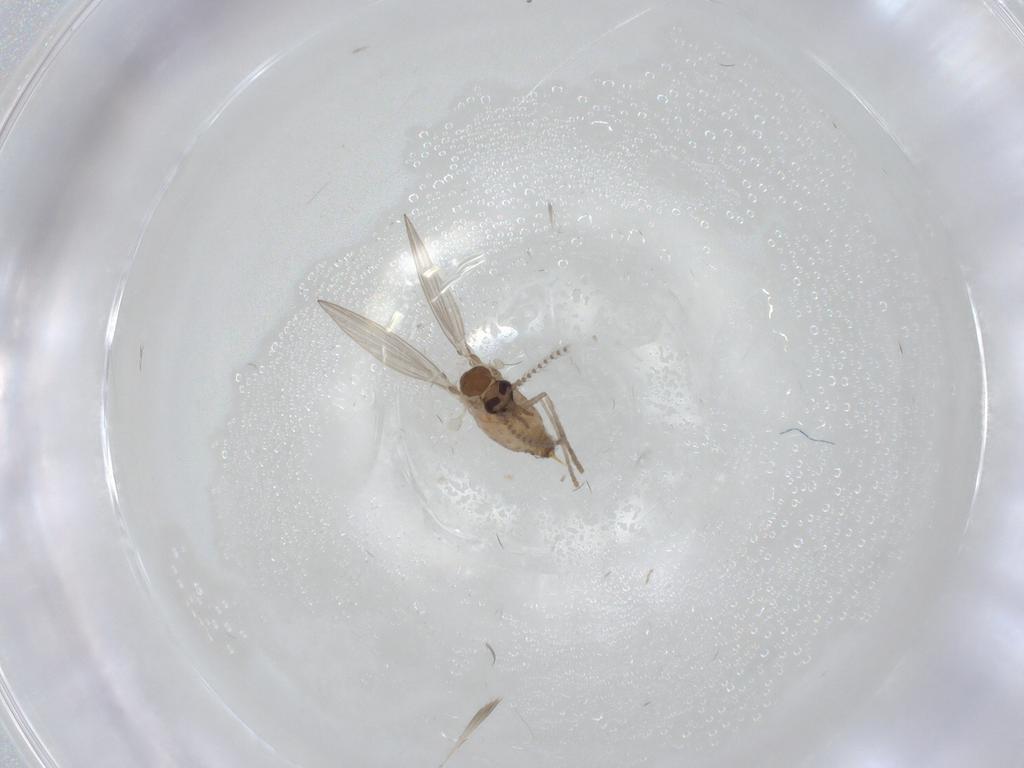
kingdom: Animalia
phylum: Arthropoda
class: Insecta
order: Diptera
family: Psychodidae
